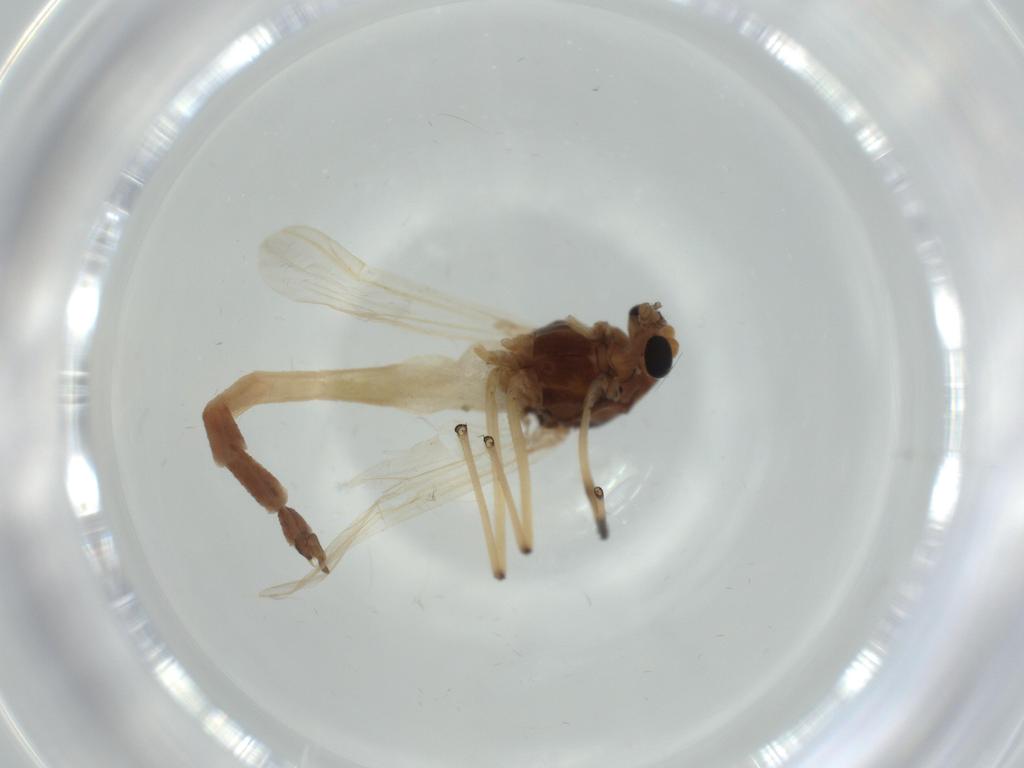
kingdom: Animalia
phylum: Arthropoda
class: Insecta
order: Diptera
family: Chironomidae
